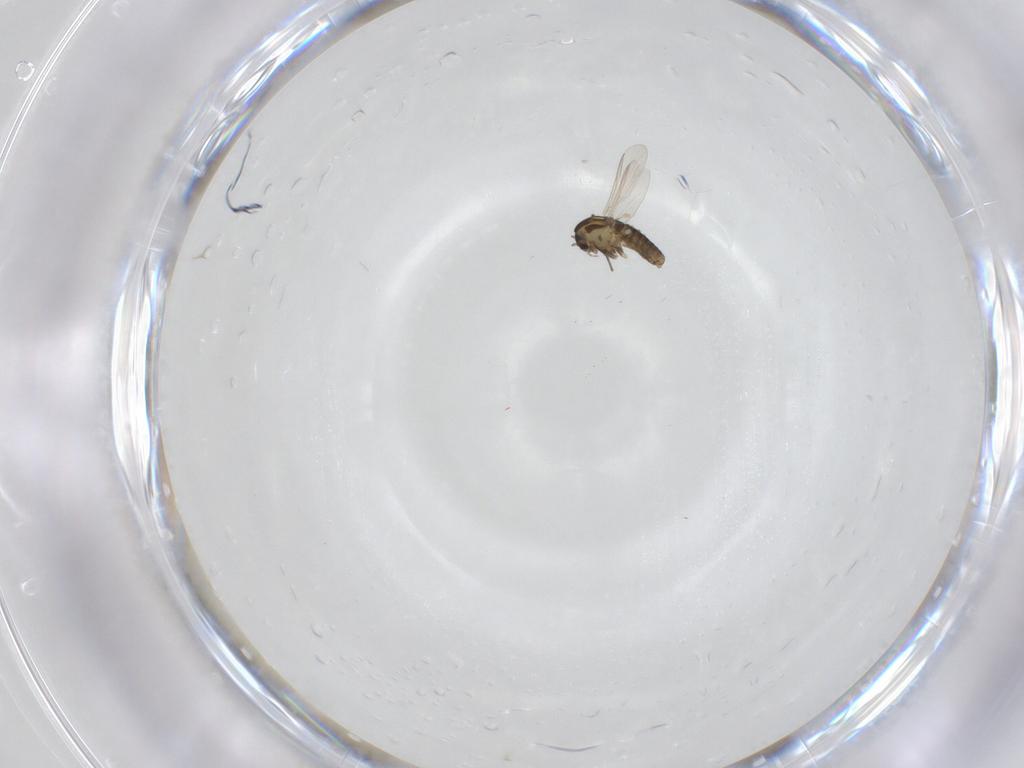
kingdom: Animalia
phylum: Arthropoda
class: Insecta
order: Diptera
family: Chironomidae
